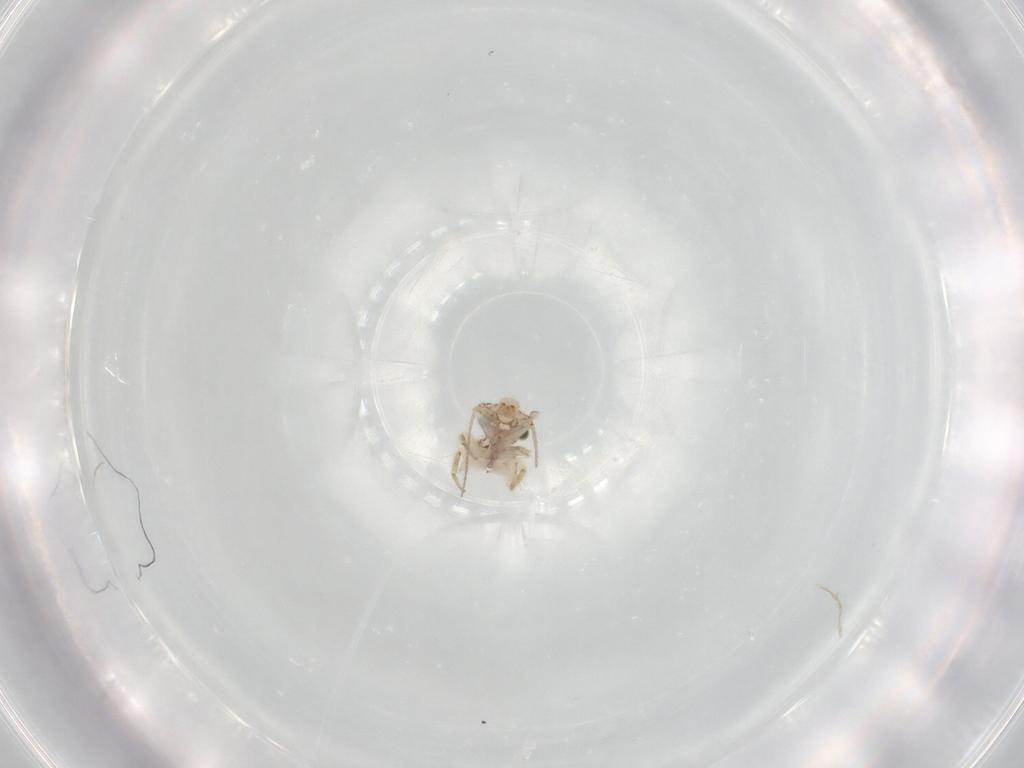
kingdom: Animalia
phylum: Arthropoda
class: Insecta
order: Psocodea
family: Lepidopsocidae
